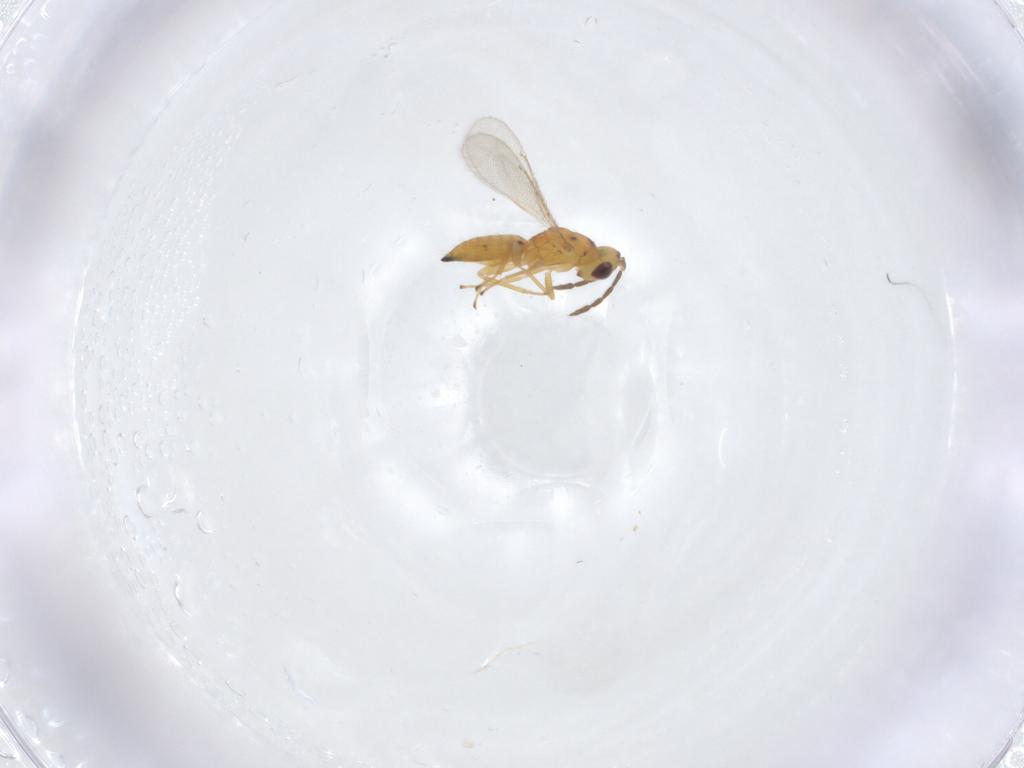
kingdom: Animalia
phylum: Arthropoda
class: Insecta
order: Hymenoptera
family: Eulophidae
